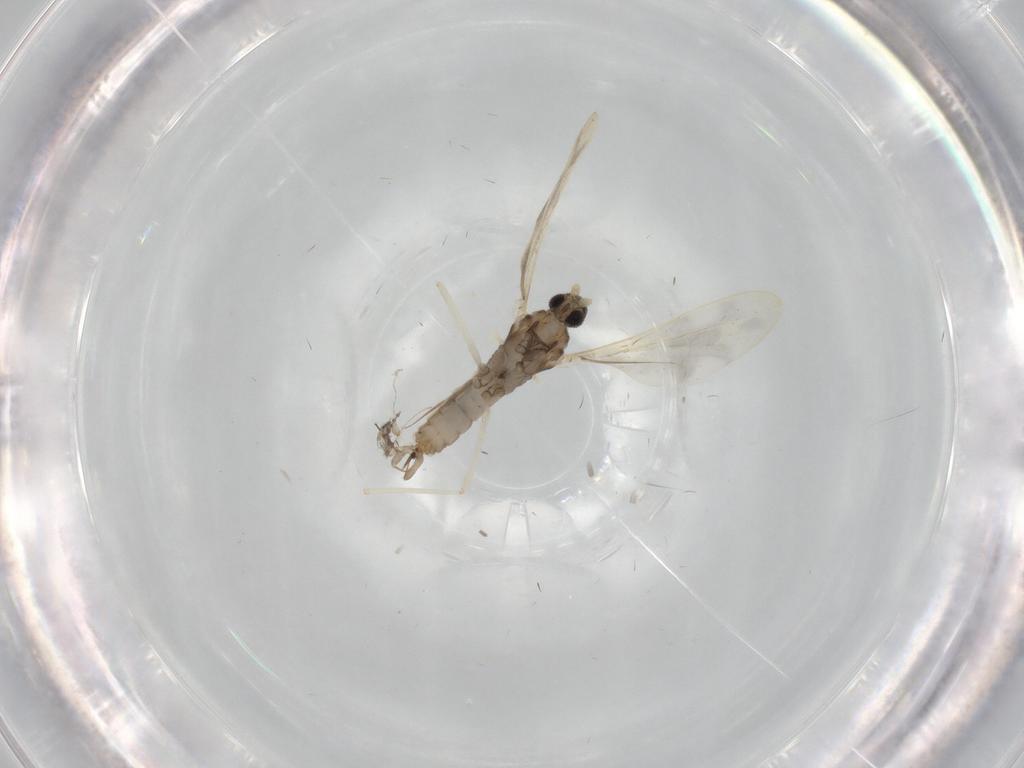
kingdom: Animalia
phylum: Arthropoda
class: Insecta
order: Diptera
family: Cecidomyiidae
